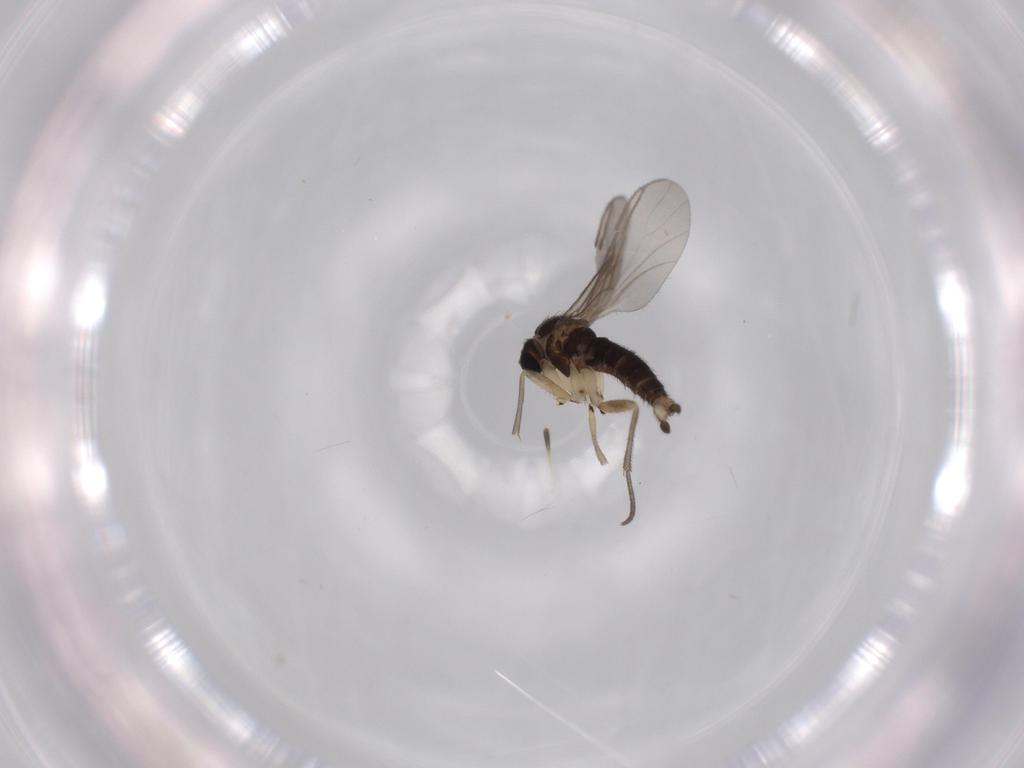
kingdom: Animalia
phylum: Arthropoda
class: Insecta
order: Diptera
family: Sciaridae
